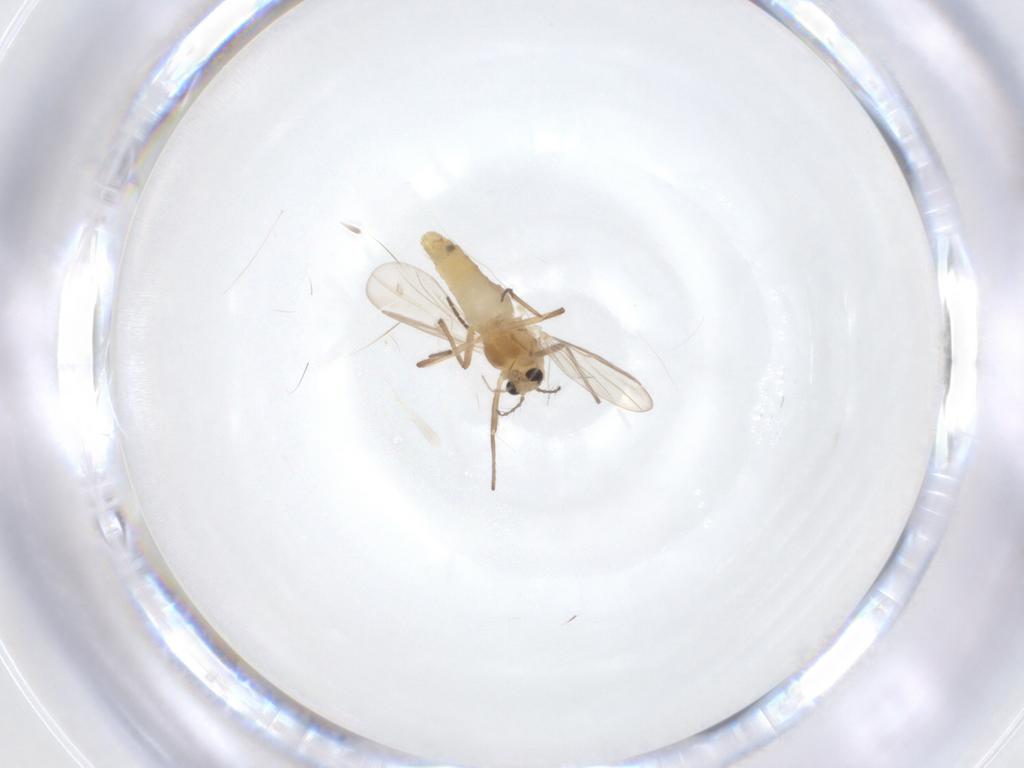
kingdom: Animalia
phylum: Arthropoda
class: Insecta
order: Diptera
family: Chironomidae
